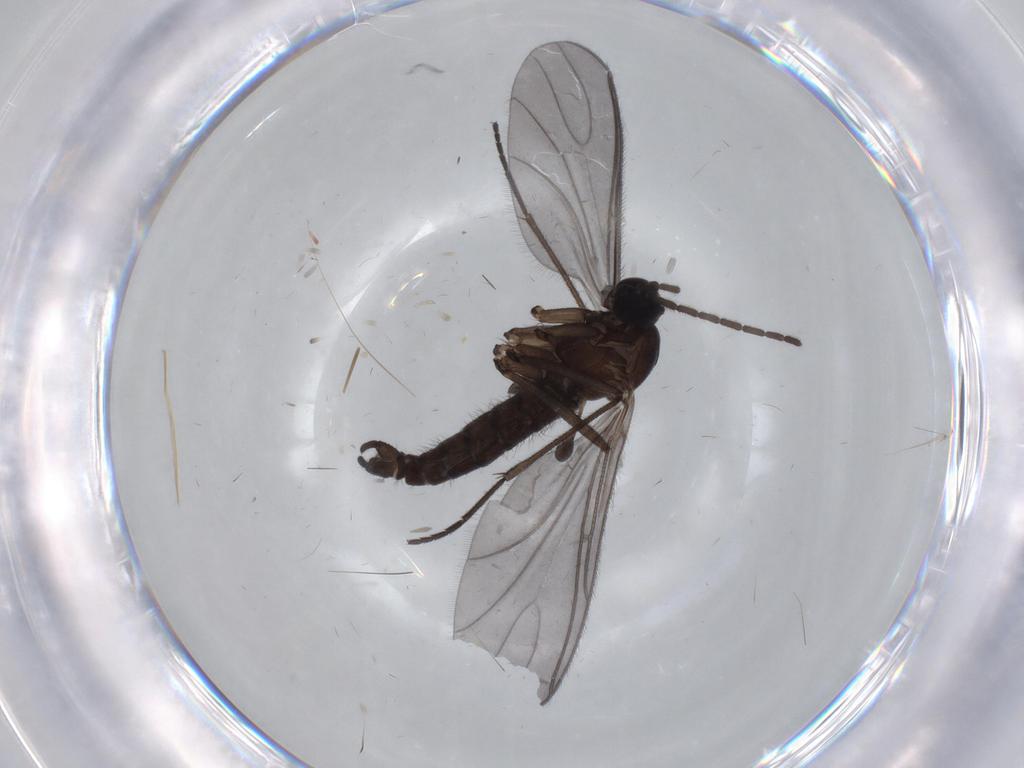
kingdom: Animalia
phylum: Arthropoda
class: Insecta
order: Diptera
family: Sciaridae
